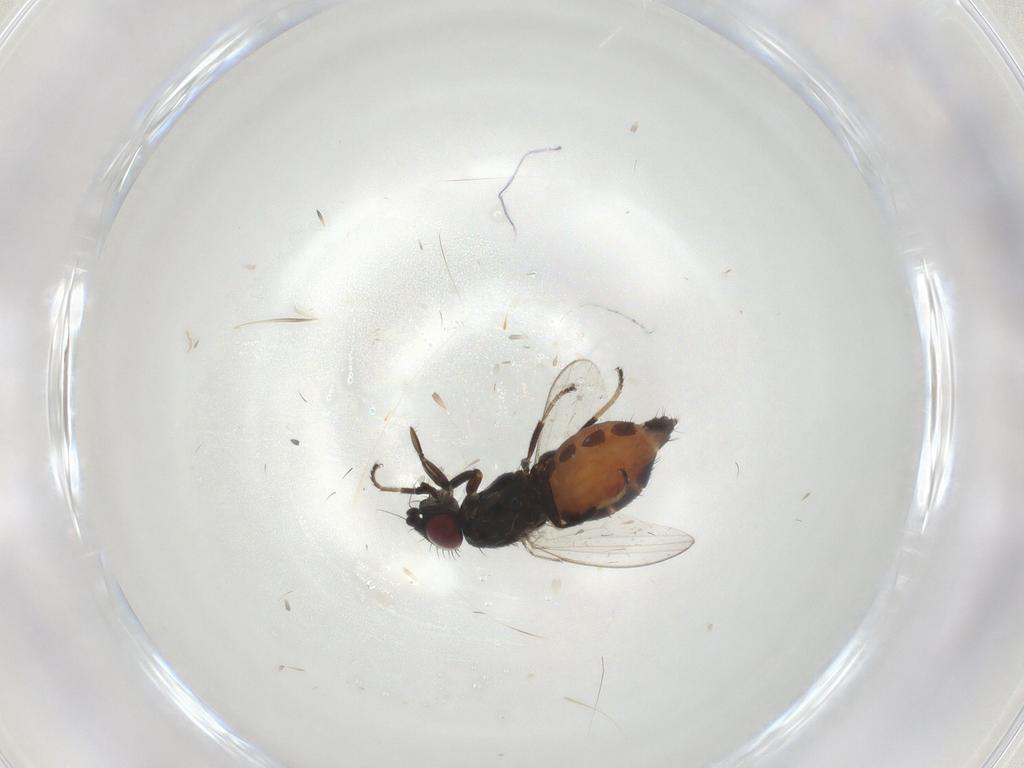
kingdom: Animalia
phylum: Arthropoda
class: Insecta
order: Diptera
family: Milichiidae
